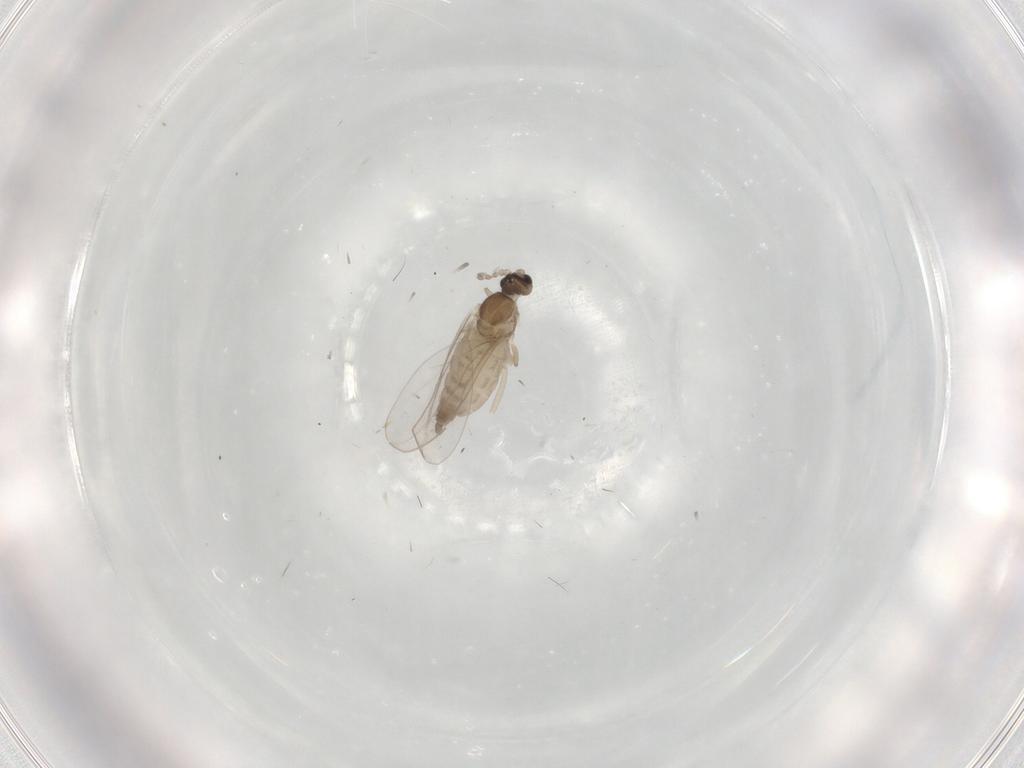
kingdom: Animalia
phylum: Arthropoda
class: Insecta
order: Diptera
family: Cecidomyiidae
